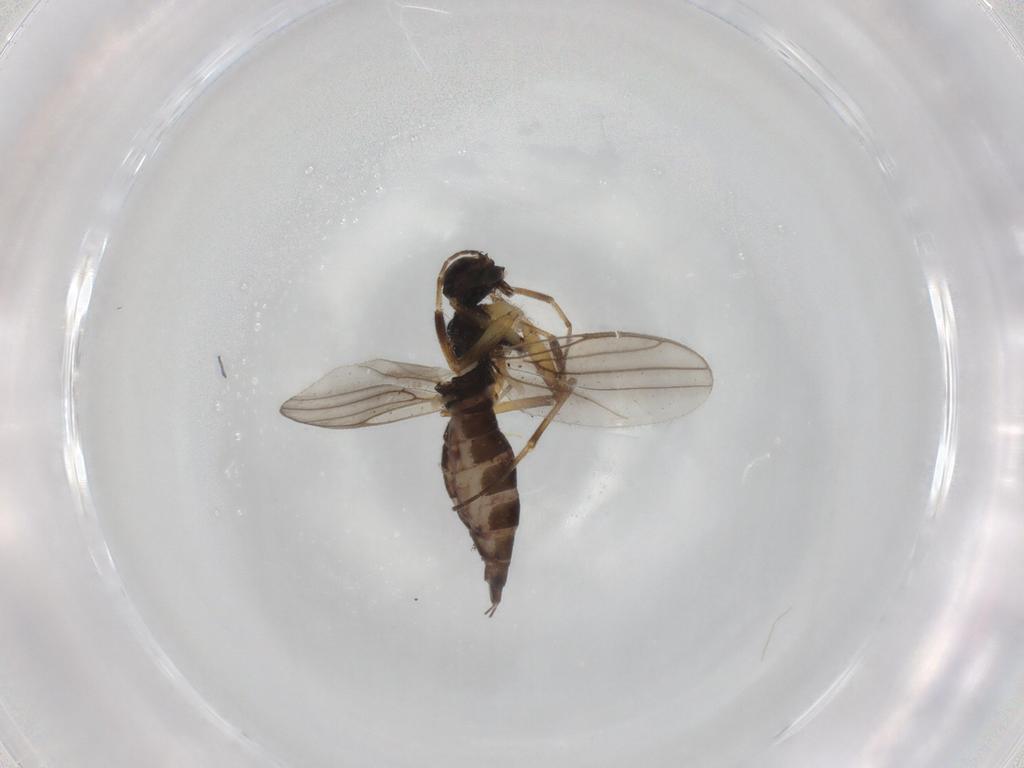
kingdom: Animalia
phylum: Arthropoda
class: Insecta
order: Diptera
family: Hybotidae
